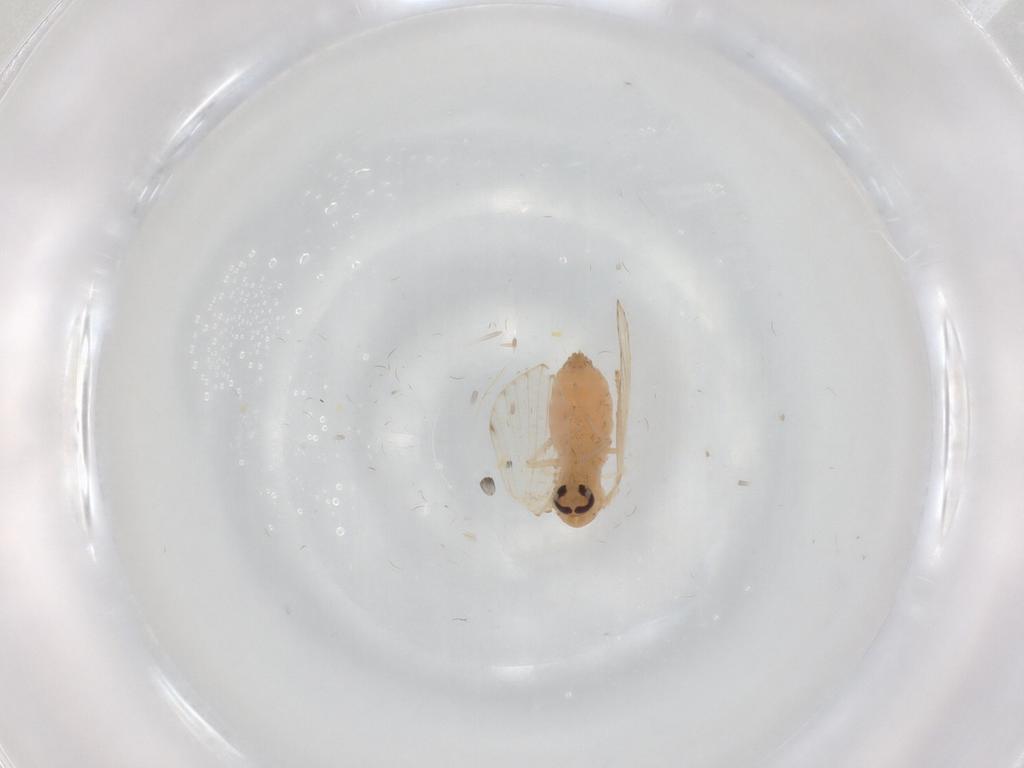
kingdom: Animalia
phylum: Arthropoda
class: Insecta
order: Diptera
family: Psychodidae
